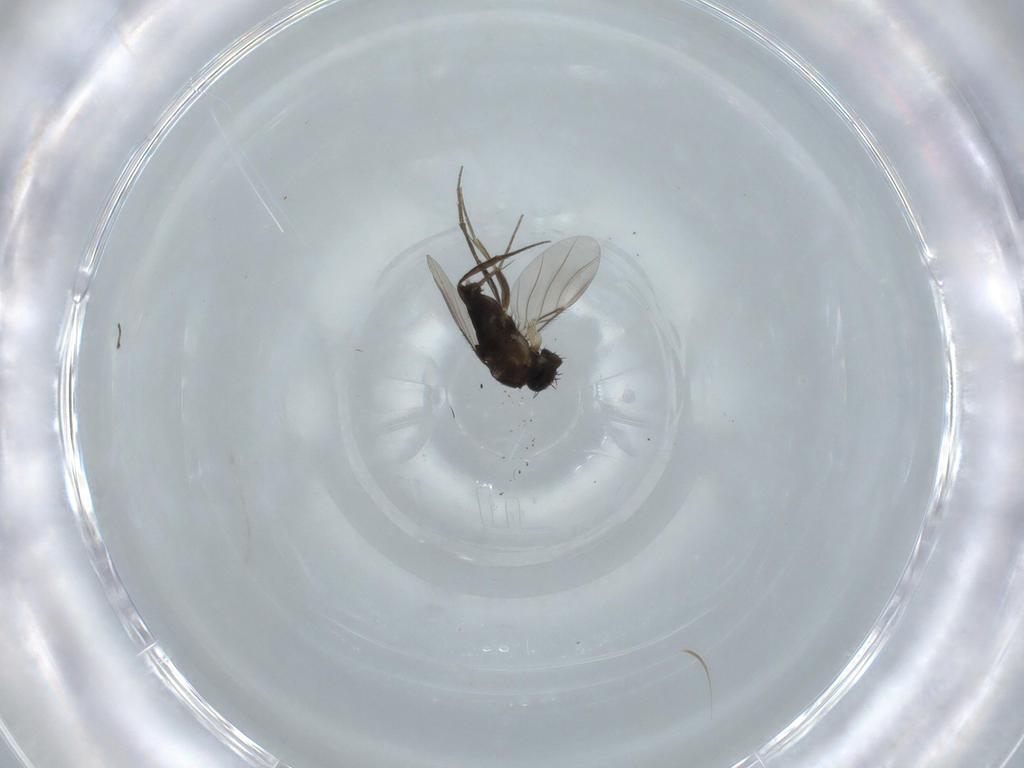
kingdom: Animalia
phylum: Arthropoda
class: Insecta
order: Diptera
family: Phoridae
